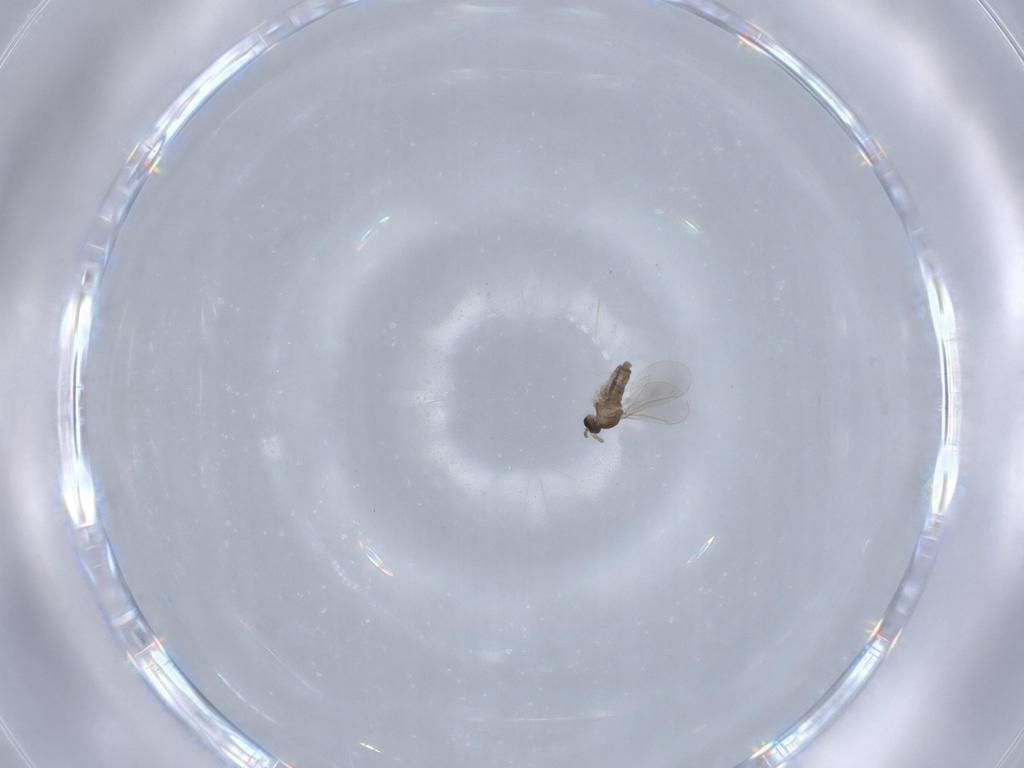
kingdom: Animalia
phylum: Arthropoda
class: Insecta
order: Diptera
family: Cecidomyiidae
